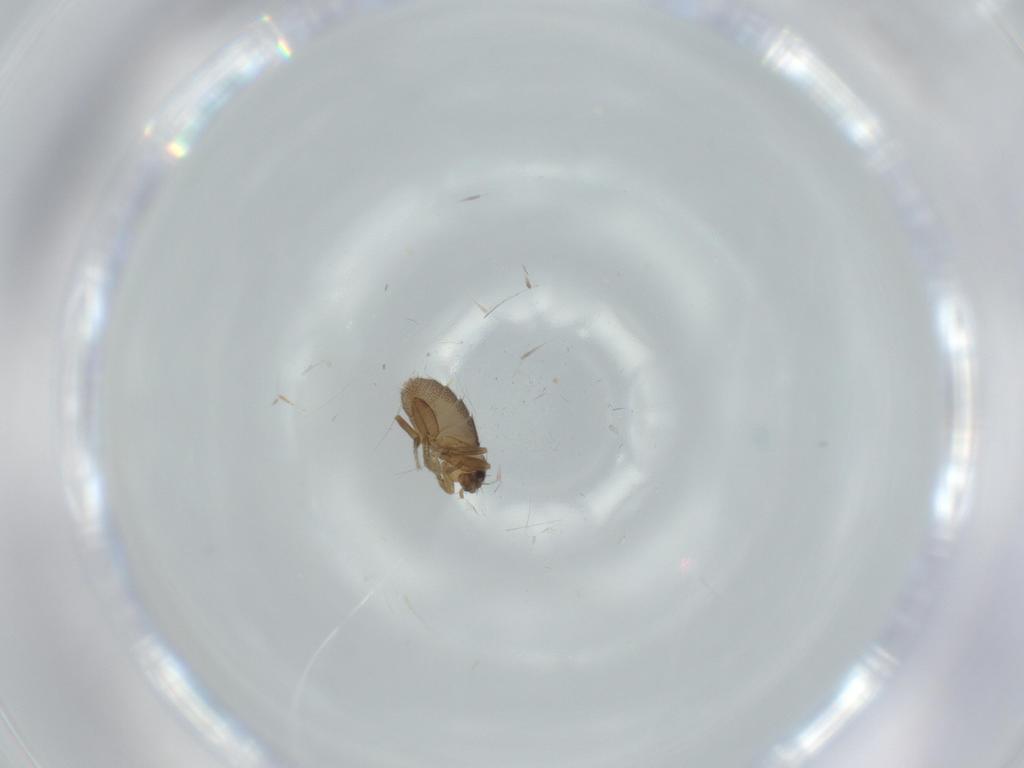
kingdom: Animalia
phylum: Arthropoda
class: Insecta
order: Diptera
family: Phoridae
